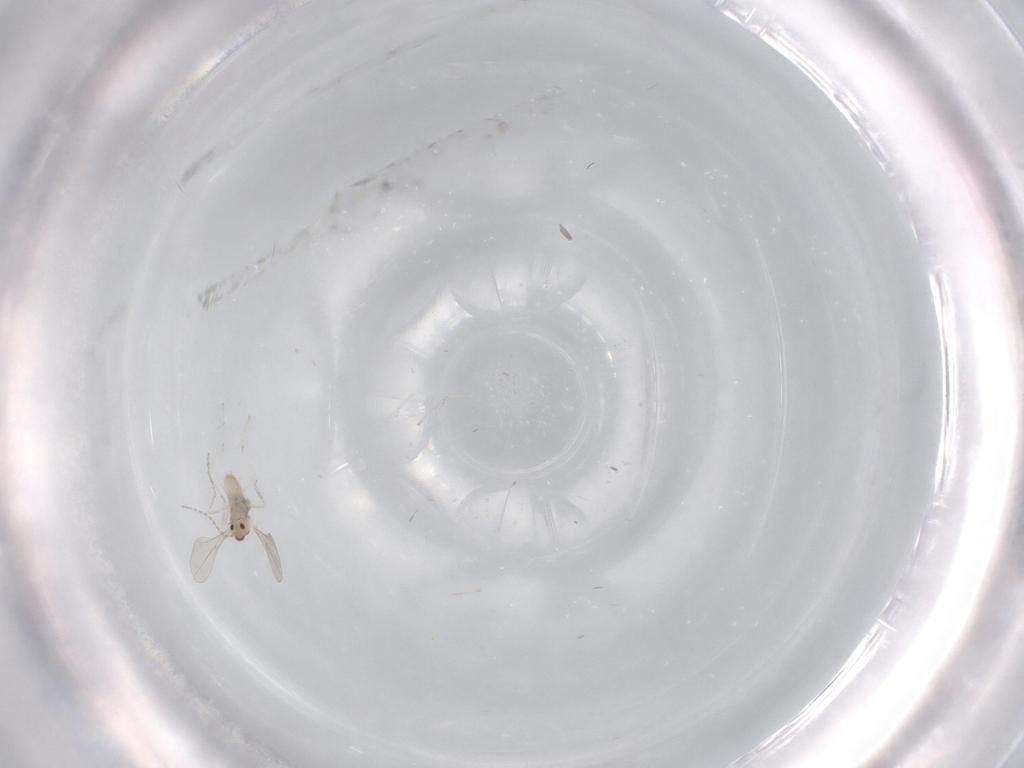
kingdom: Animalia
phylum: Arthropoda
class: Insecta
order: Diptera
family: Cecidomyiidae
